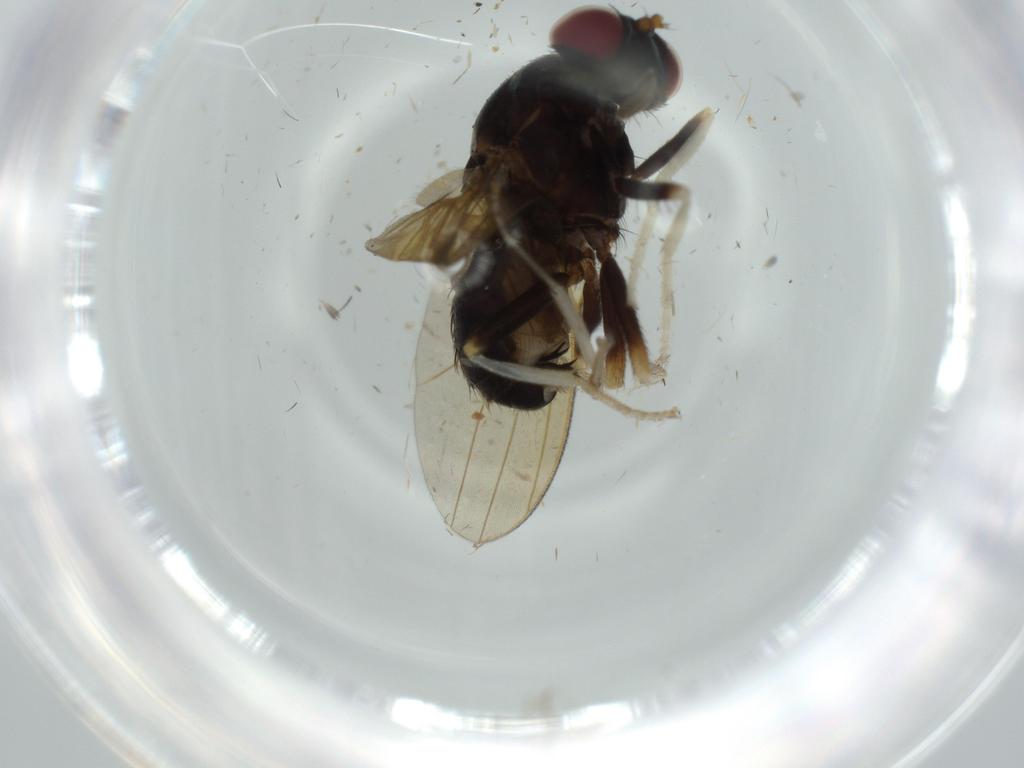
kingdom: Animalia
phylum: Arthropoda
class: Insecta
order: Diptera
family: Lauxaniidae
